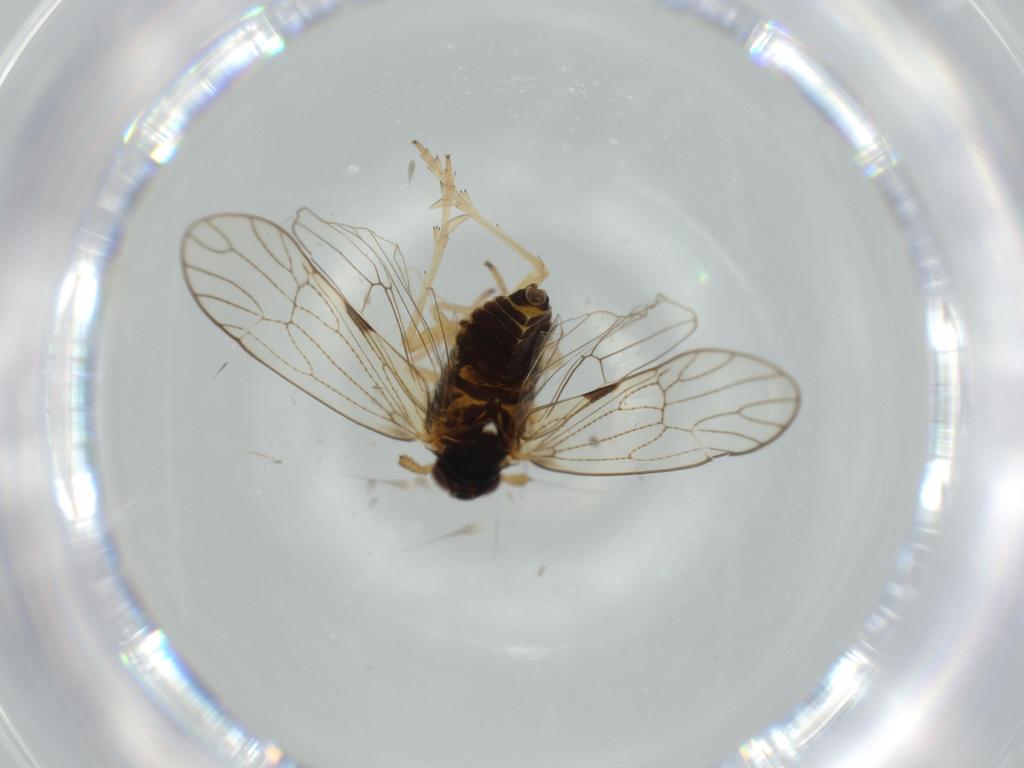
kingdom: Animalia
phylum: Arthropoda
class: Insecta
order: Hemiptera
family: Membracidae
